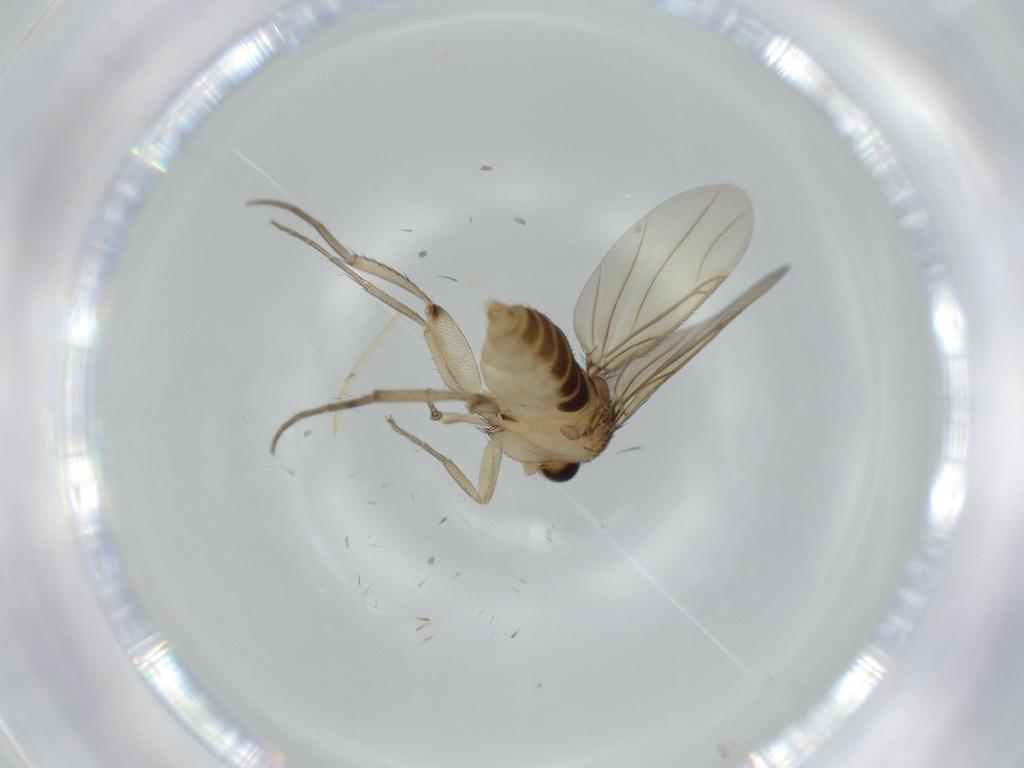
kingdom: Animalia
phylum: Arthropoda
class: Insecta
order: Diptera
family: Phoridae
